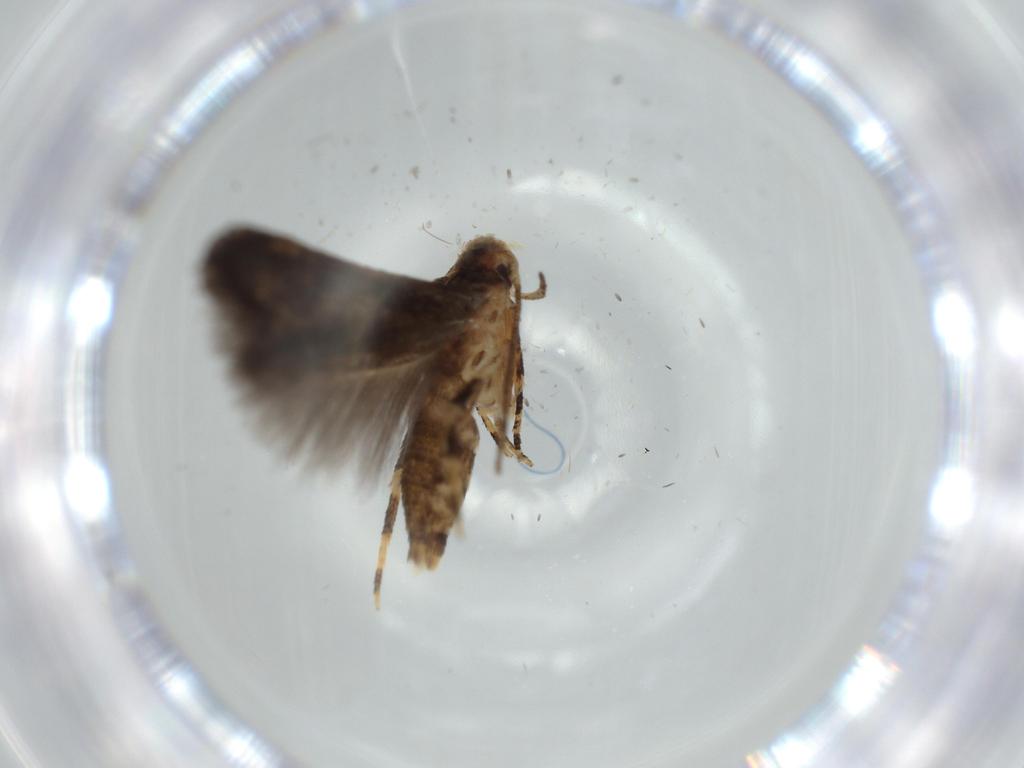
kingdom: Animalia
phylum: Arthropoda
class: Insecta
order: Lepidoptera
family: Momphidae
